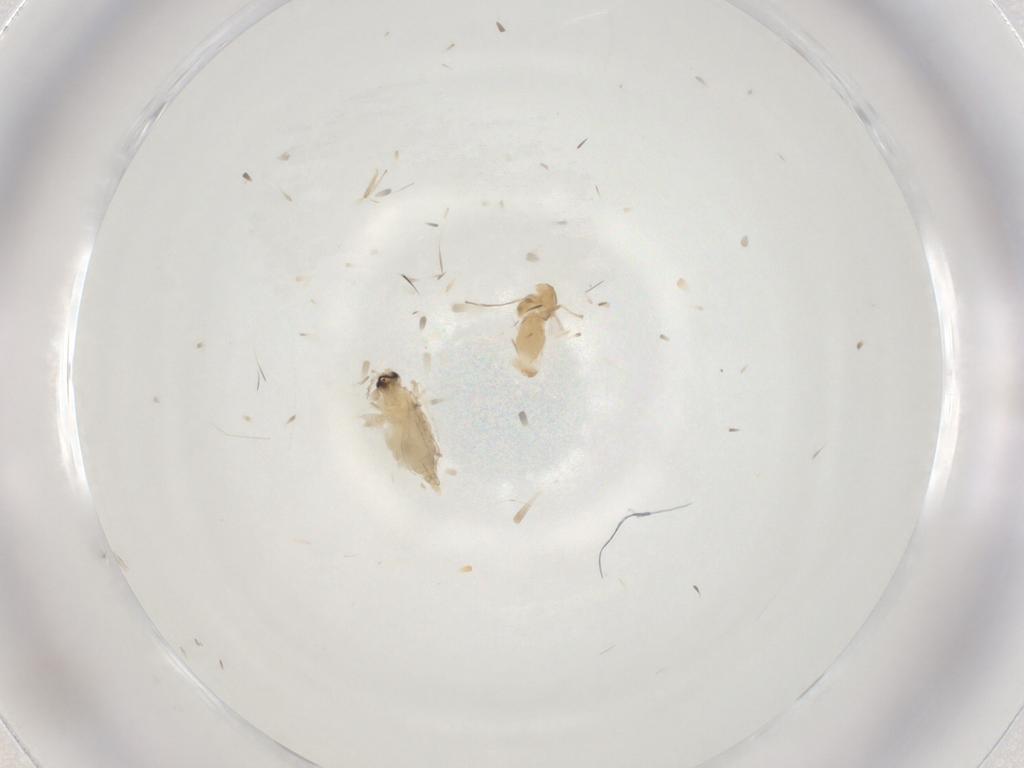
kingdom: Animalia
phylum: Arthropoda
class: Insecta
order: Diptera
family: Cecidomyiidae
